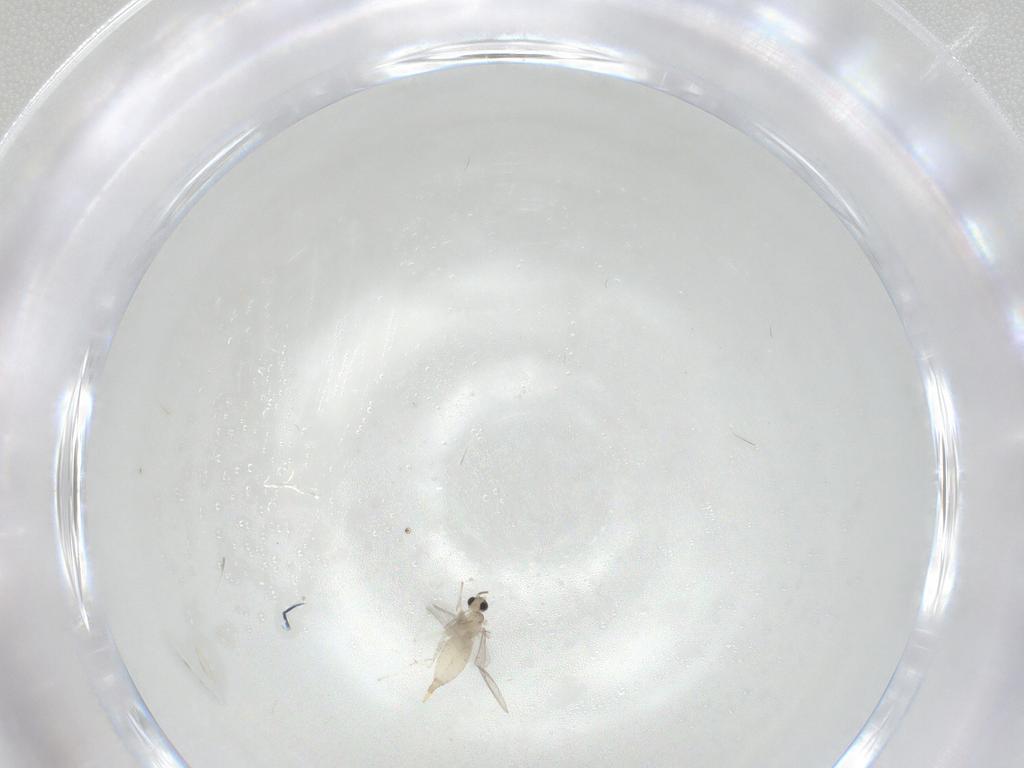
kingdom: Animalia
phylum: Arthropoda
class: Insecta
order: Diptera
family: Cecidomyiidae
